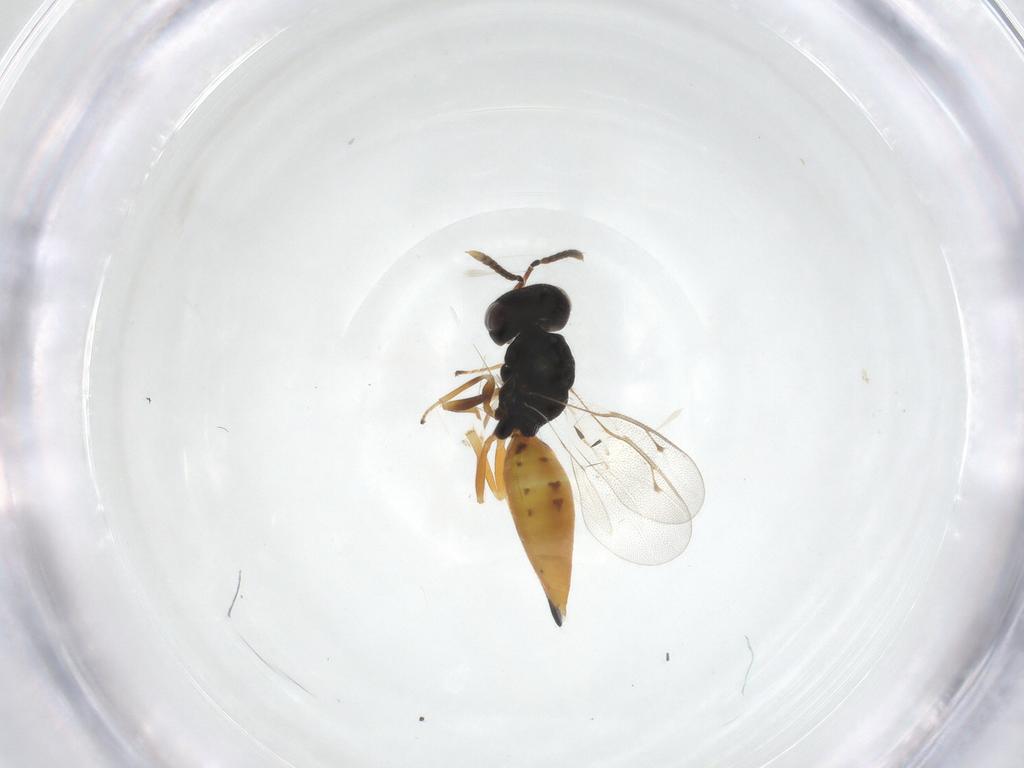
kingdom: Animalia
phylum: Arthropoda
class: Insecta
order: Hymenoptera
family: Pteromalidae
